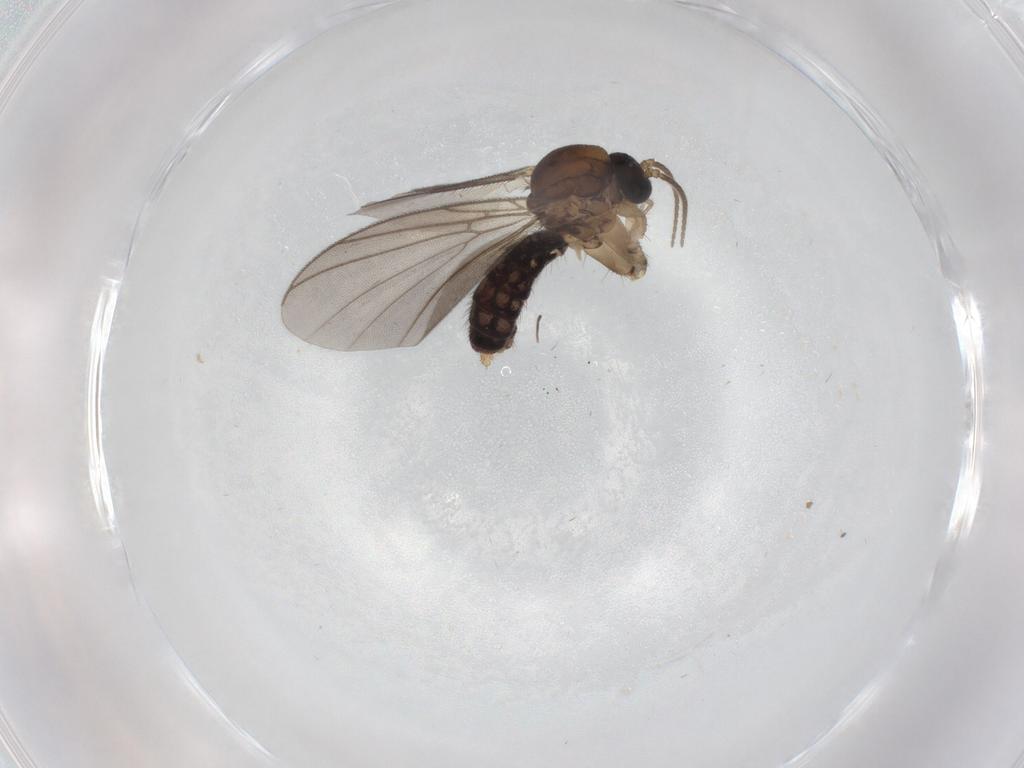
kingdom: Animalia
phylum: Arthropoda
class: Insecta
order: Diptera
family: Mycetophilidae
